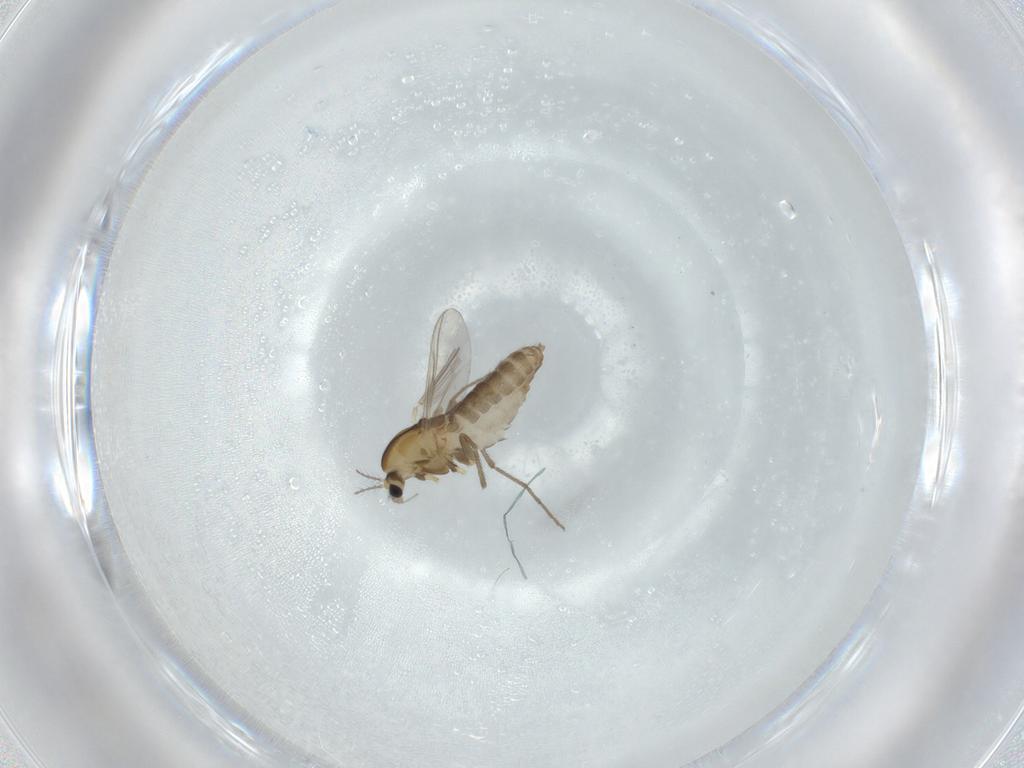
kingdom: Animalia
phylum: Arthropoda
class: Insecta
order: Diptera
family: Chironomidae
